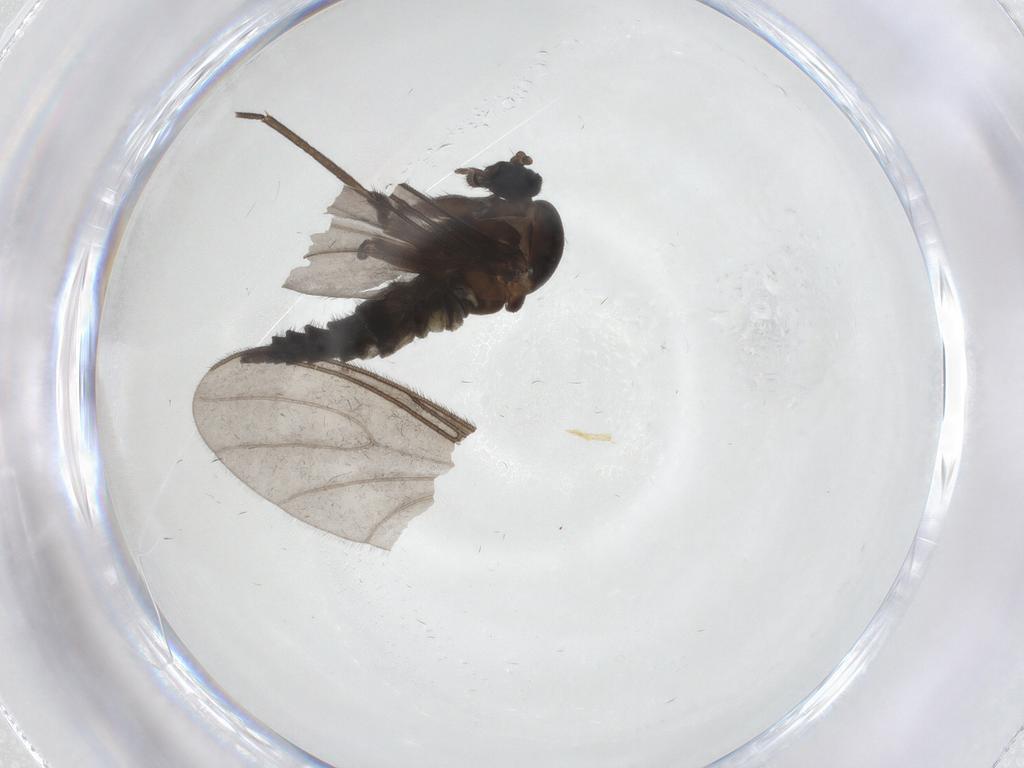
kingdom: Animalia
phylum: Arthropoda
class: Insecta
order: Diptera
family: Sciaridae
